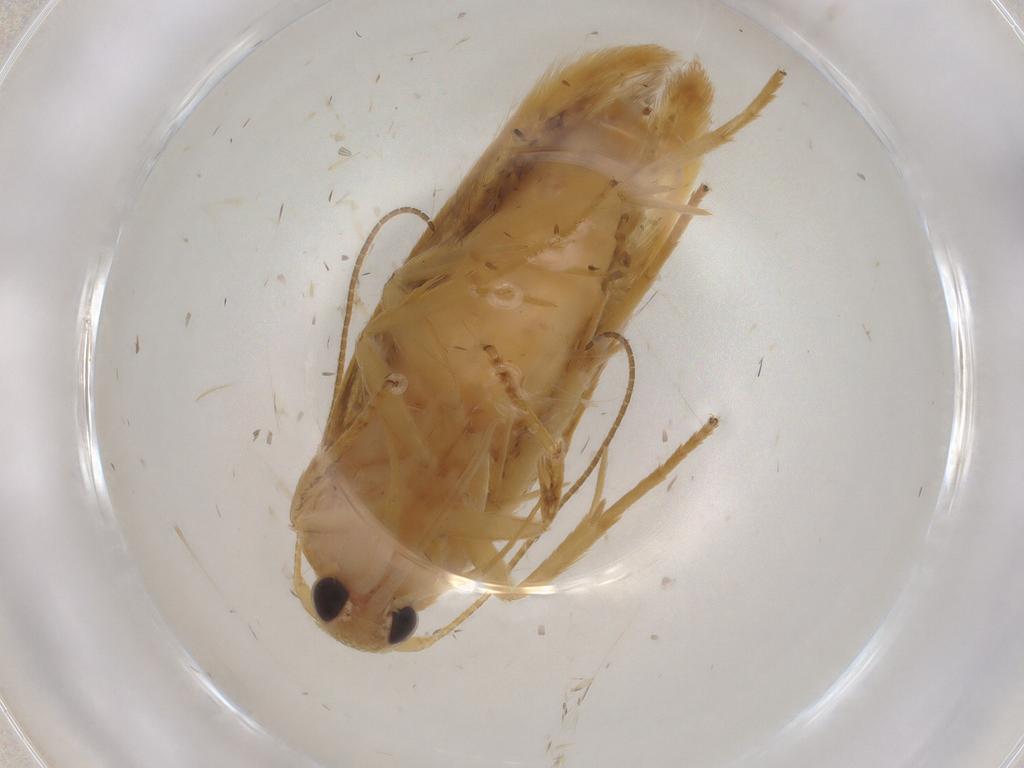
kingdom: Animalia
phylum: Arthropoda
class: Insecta
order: Lepidoptera
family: Stathmopodidae
